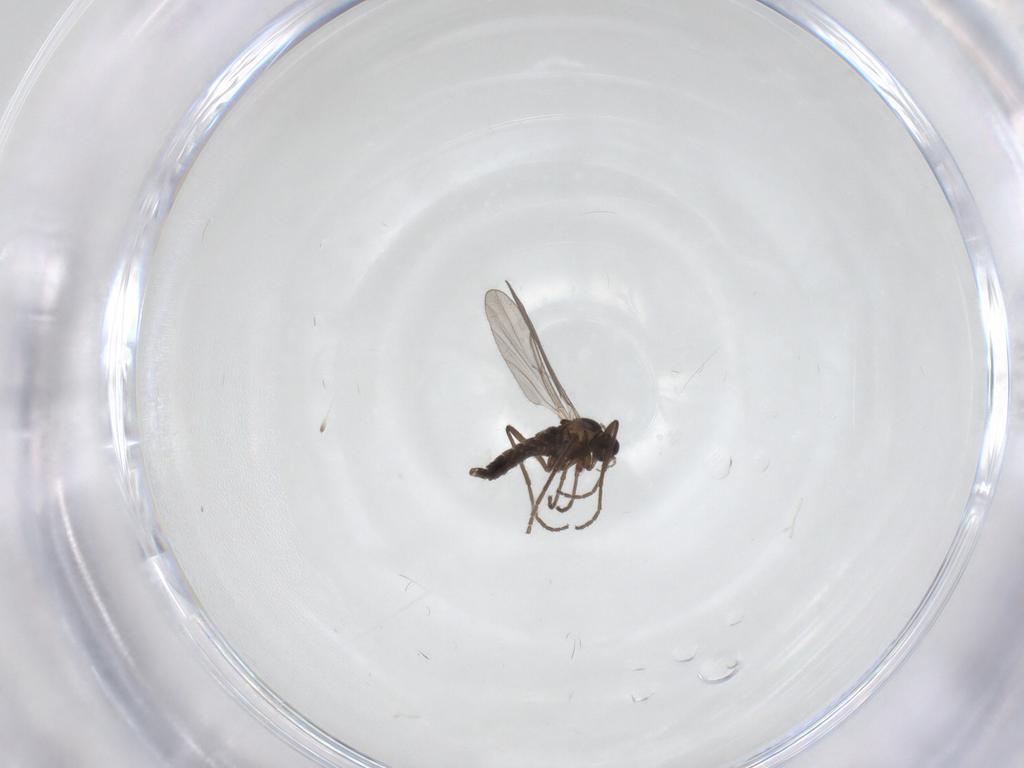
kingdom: Animalia
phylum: Arthropoda
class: Insecta
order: Diptera
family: Cecidomyiidae
